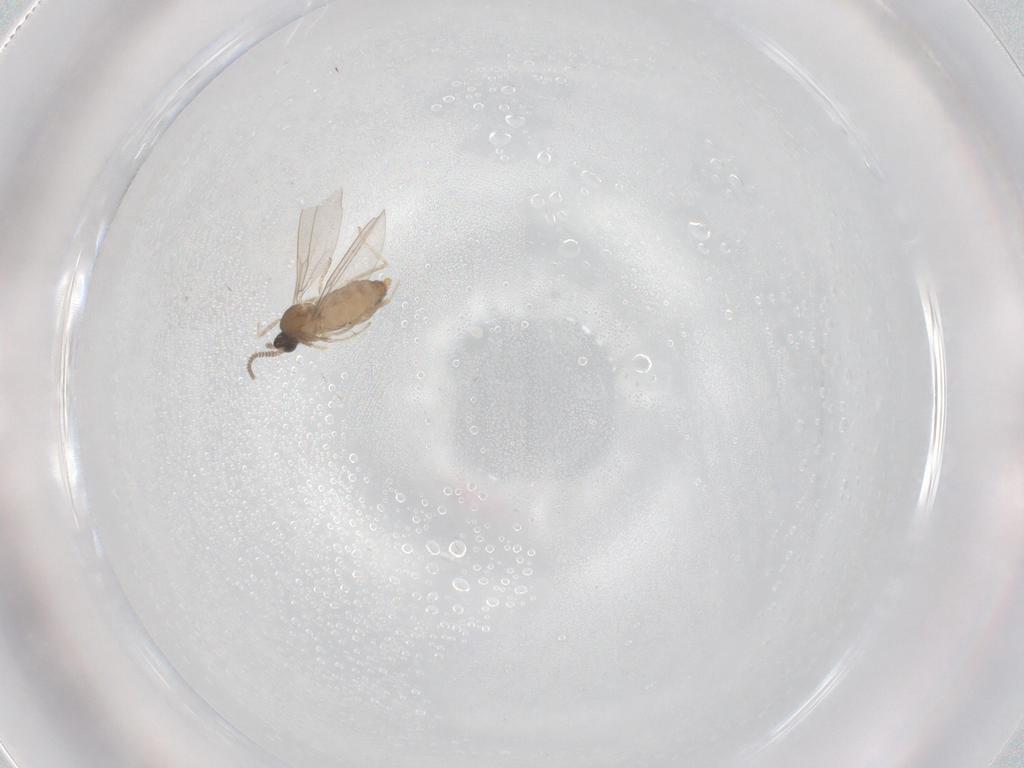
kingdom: Animalia
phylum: Arthropoda
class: Insecta
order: Diptera
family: Cecidomyiidae
